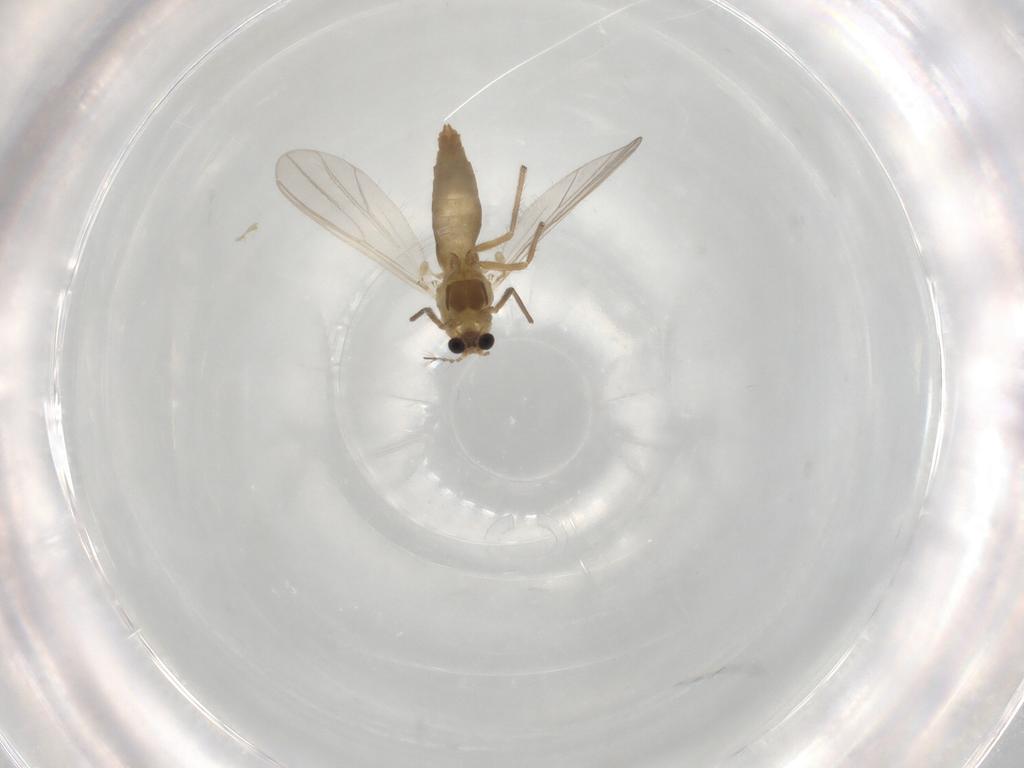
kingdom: Animalia
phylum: Arthropoda
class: Insecta
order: Diptera
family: Chironomidae
